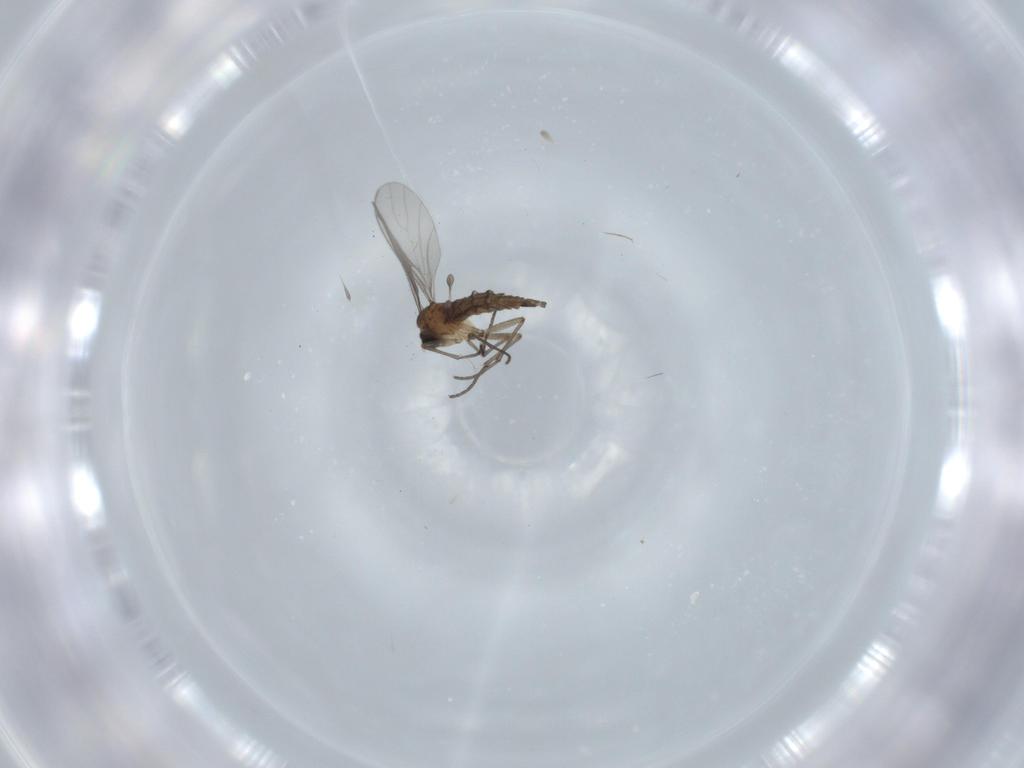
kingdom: Animalia
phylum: Arthropoda
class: Insecta
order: Diptera
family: Sciaridae
